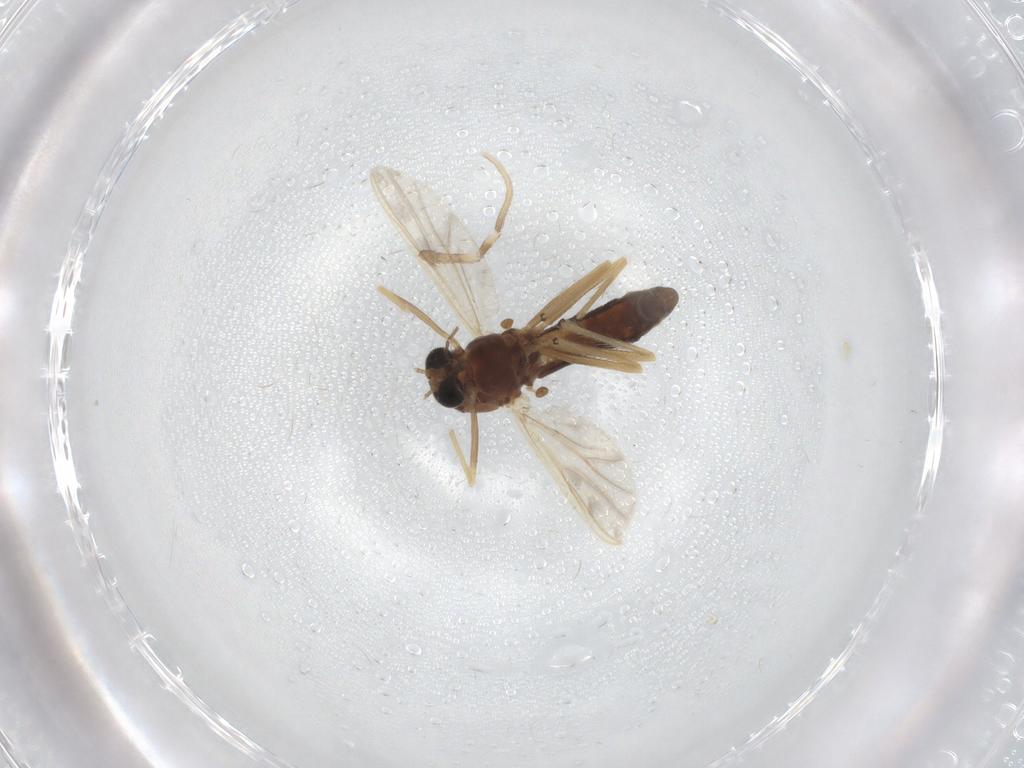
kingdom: Animalia
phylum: Arthropoda
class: Insecta
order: Diptera
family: Chironomidae
